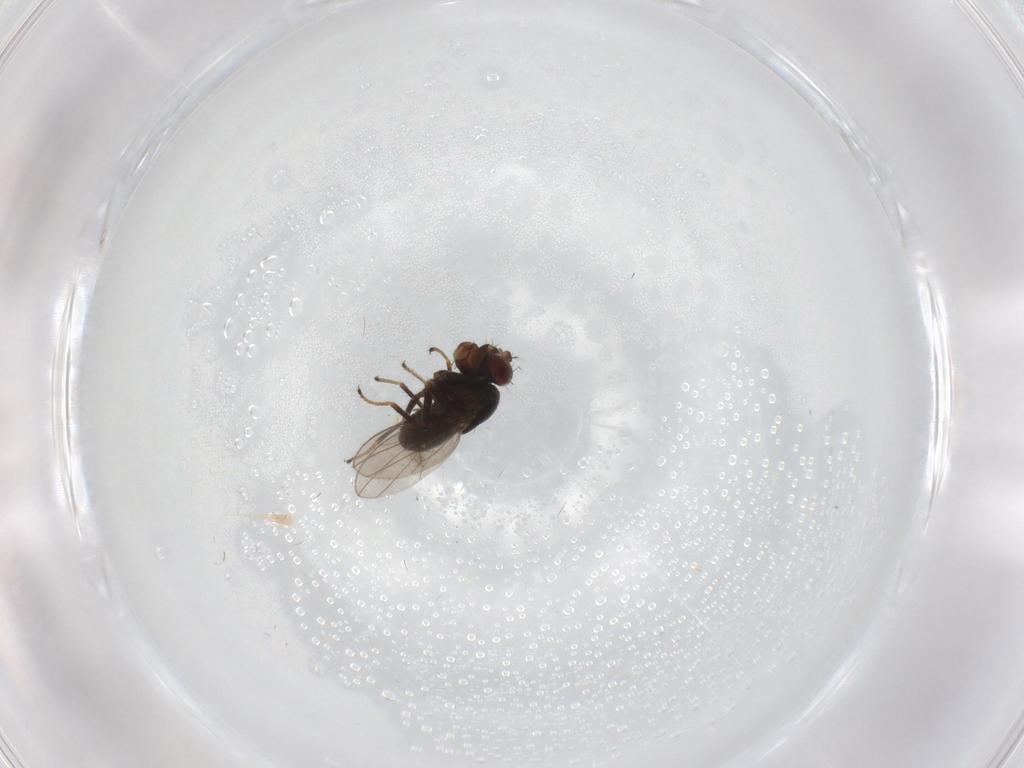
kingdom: Animalia
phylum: Arthropoda
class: Insecta
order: Diptera
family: Ephydridae
